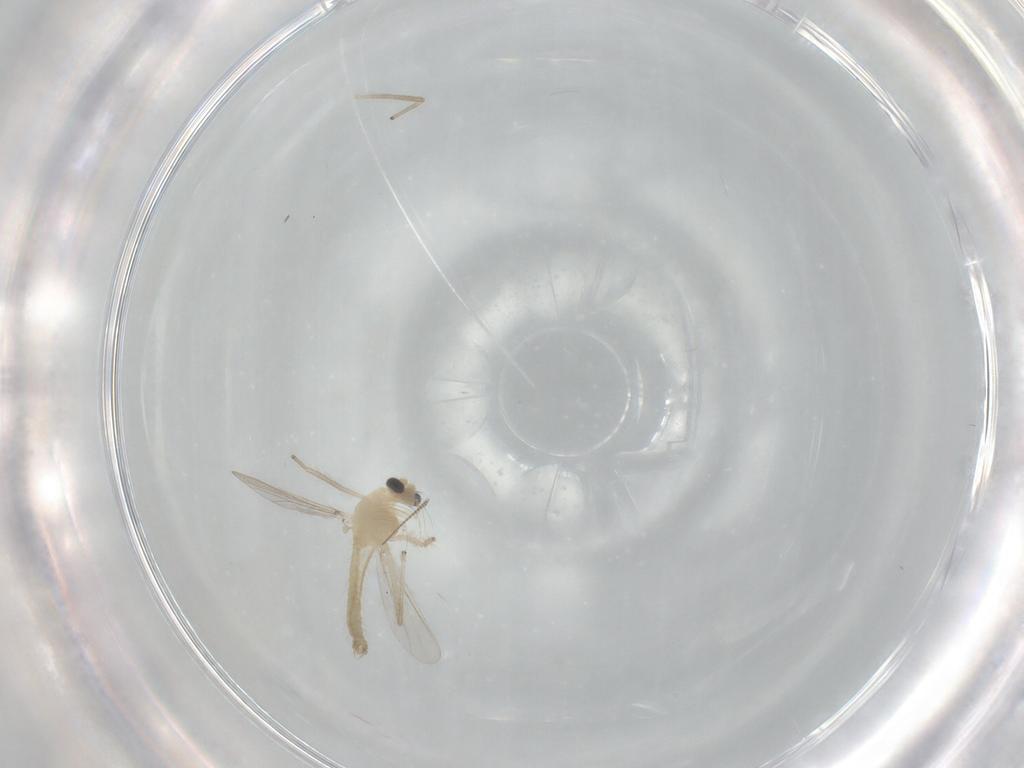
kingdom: Animalia
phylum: Arthropoda
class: Insecta
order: Diptera
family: Chironomidae
